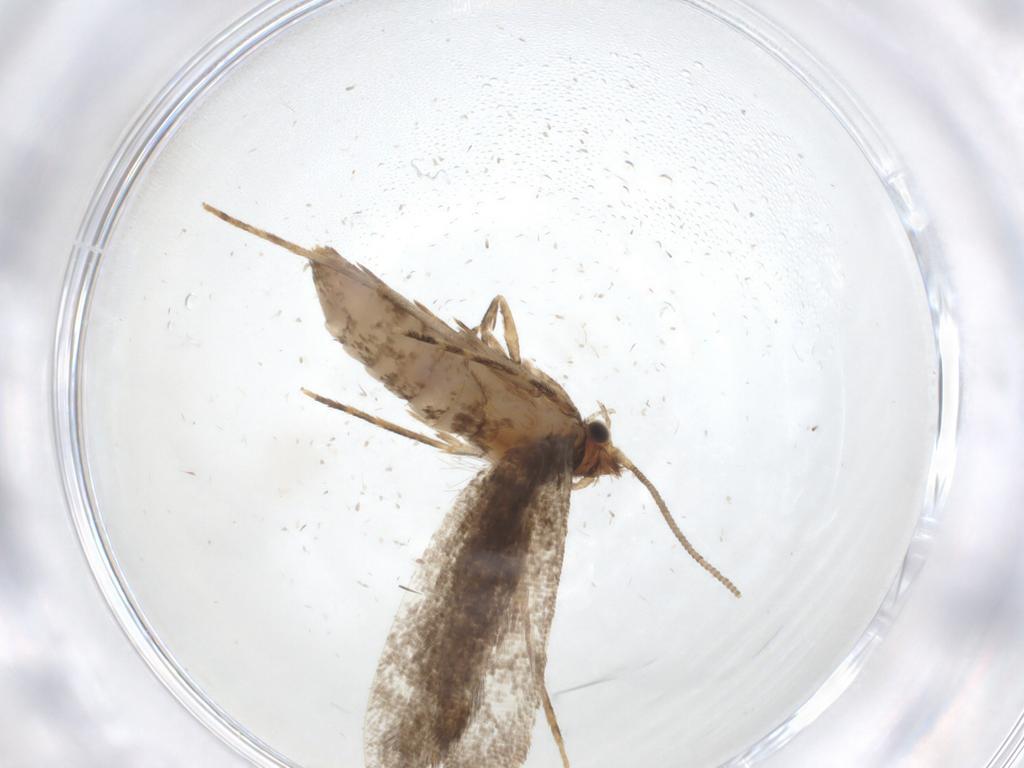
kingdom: Animalia
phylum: Arthropoda
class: Insecta
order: Lepidoptera
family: Tineidae
